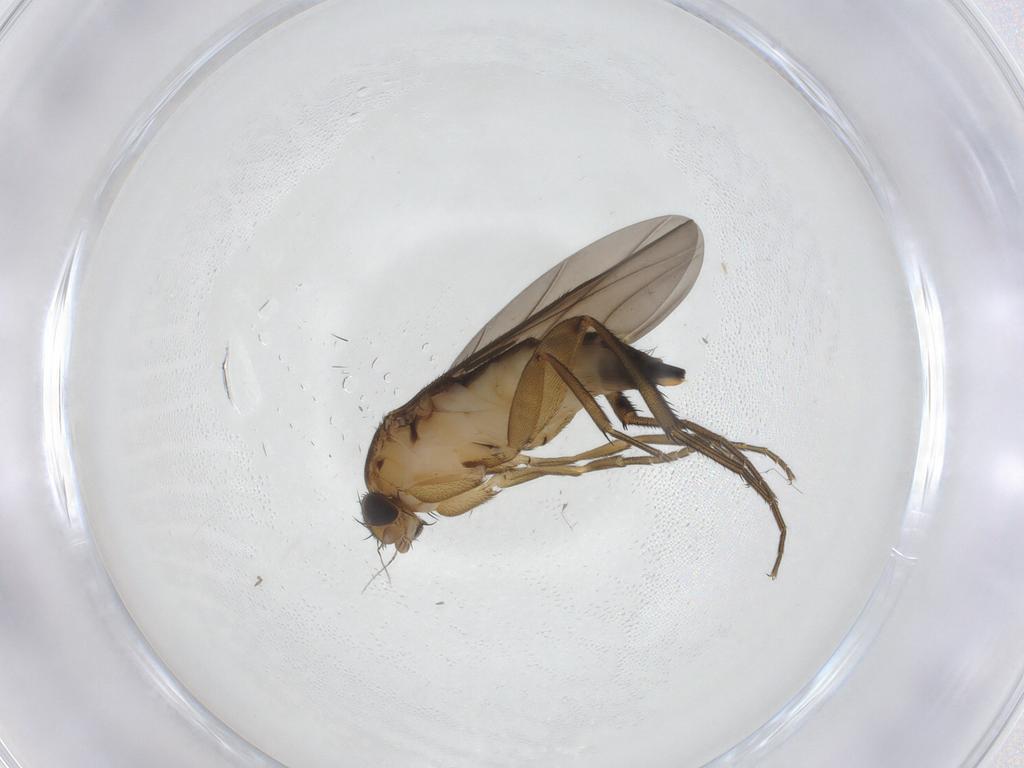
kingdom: Animalia
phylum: Arthropoda
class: Insecta
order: Diptera
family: Phoridae
